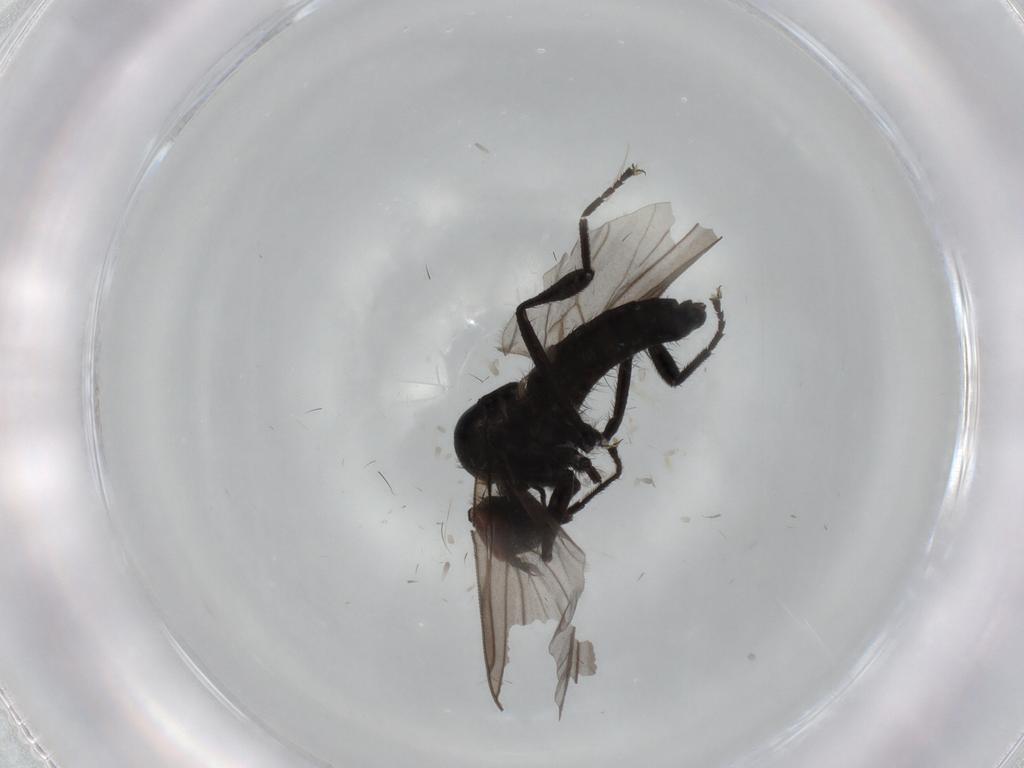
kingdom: Animalia
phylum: Arthropoda
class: Insecta
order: Diptera
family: Hybotidae
